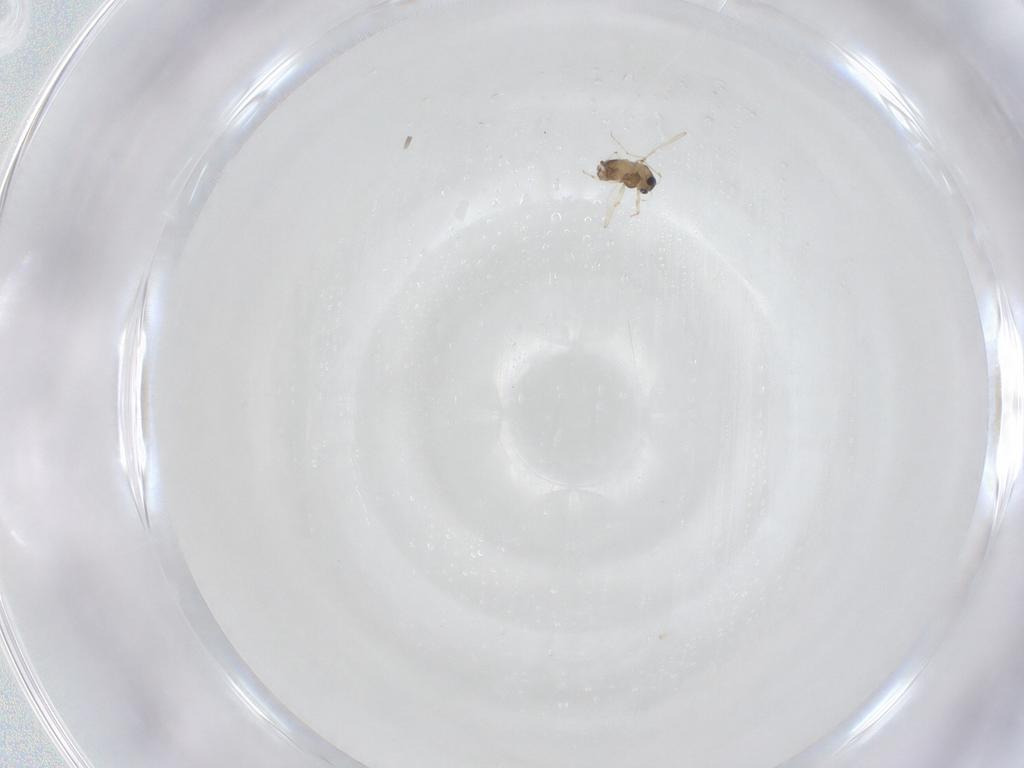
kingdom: Animalia
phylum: Arthropoda
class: Insecta
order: Diptera
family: Chironomidae
